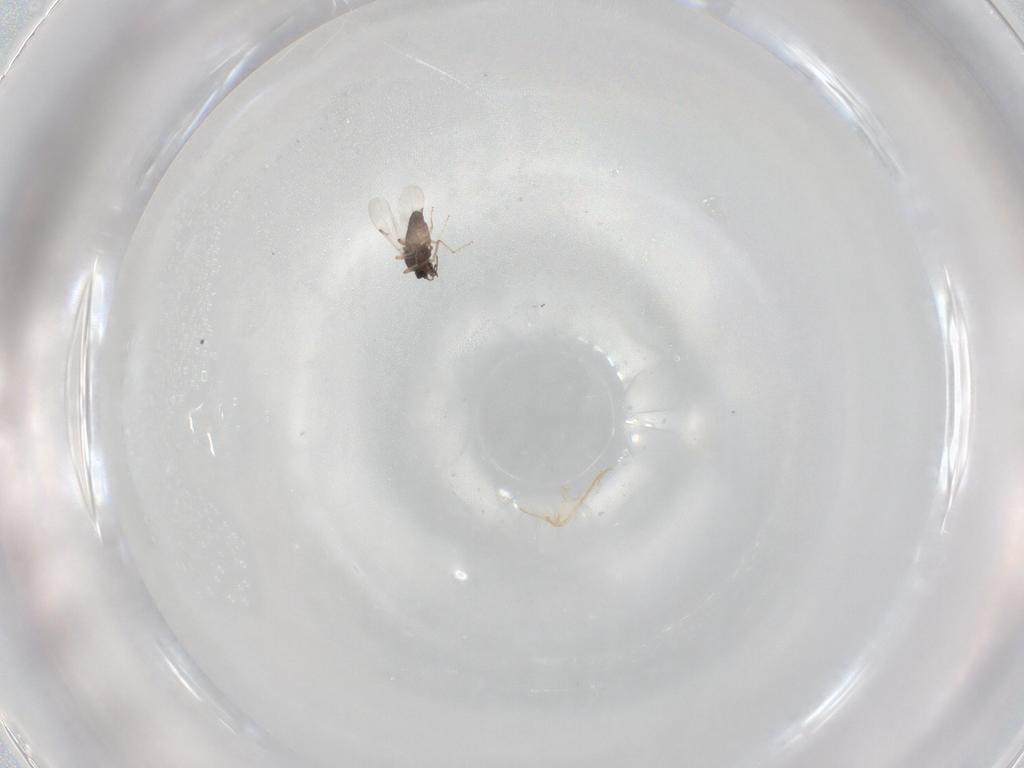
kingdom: Animalia
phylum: Arthropoda
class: Insecta
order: Diptera
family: Ceratopogonidae
